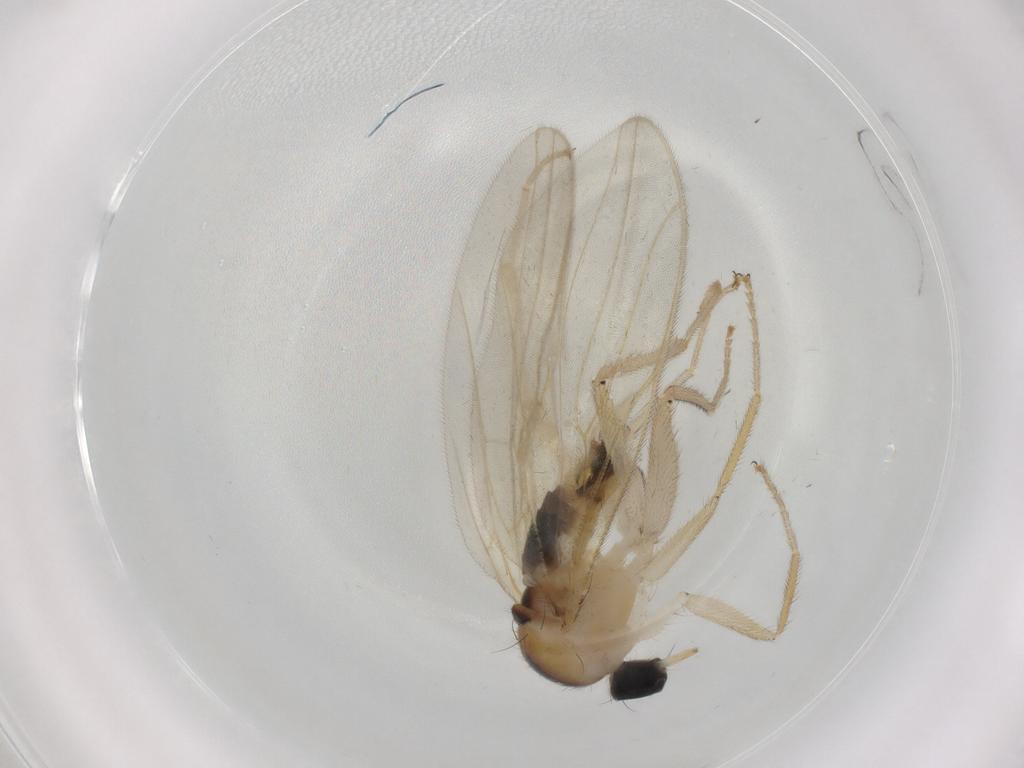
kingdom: Animalia
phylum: Arthropoda
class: Insecta
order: Diptera
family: Hybotidae
